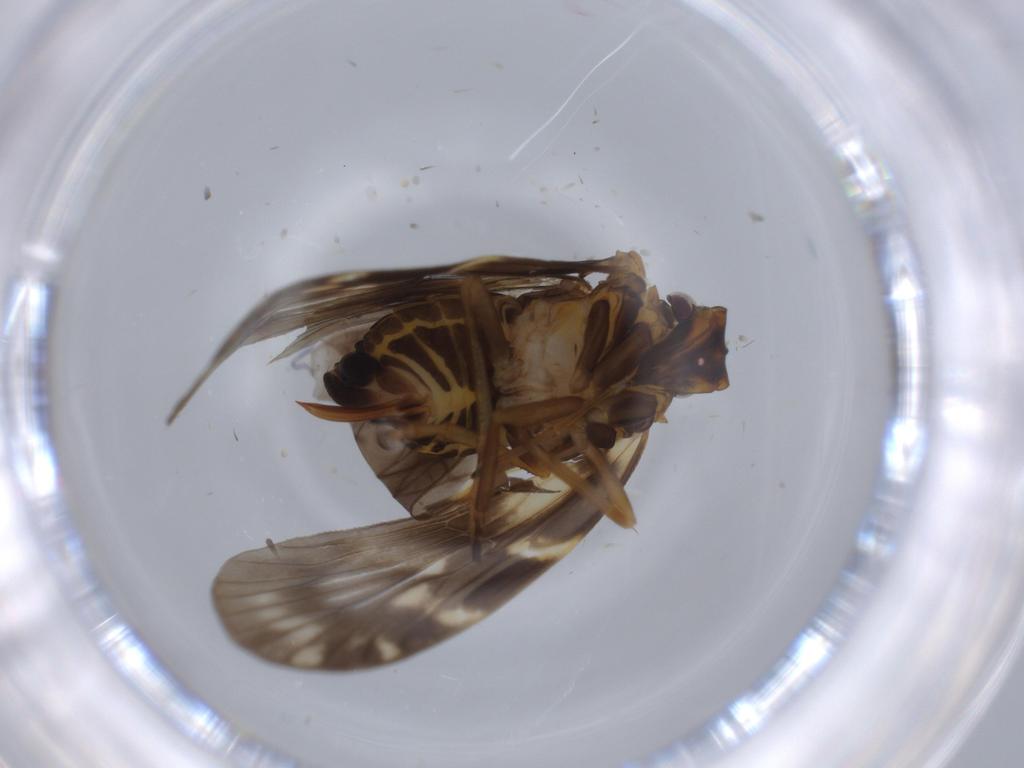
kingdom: Animalia
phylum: Arthropoda
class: Insecta
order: Hemiptera
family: Cixiidae
